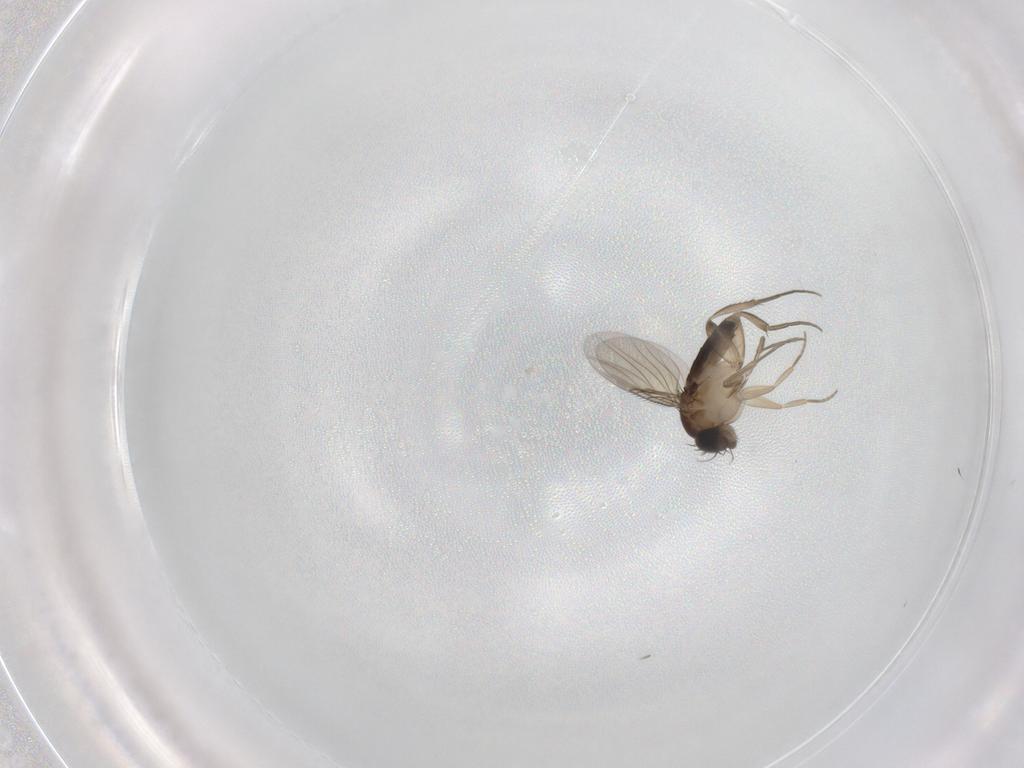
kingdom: Animalia
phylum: Arthropoda
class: Insecta
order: Diptera
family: Phoridae
